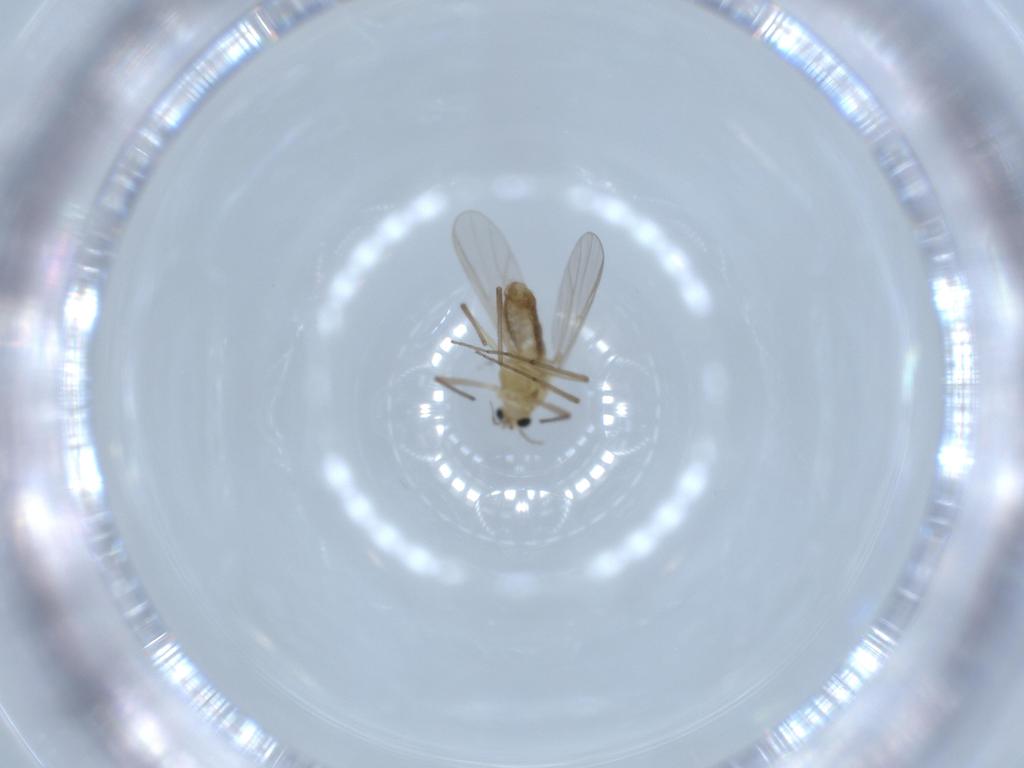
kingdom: Animalia
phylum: Arthropoda
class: Insecta
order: Diptera
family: Chironomidae
